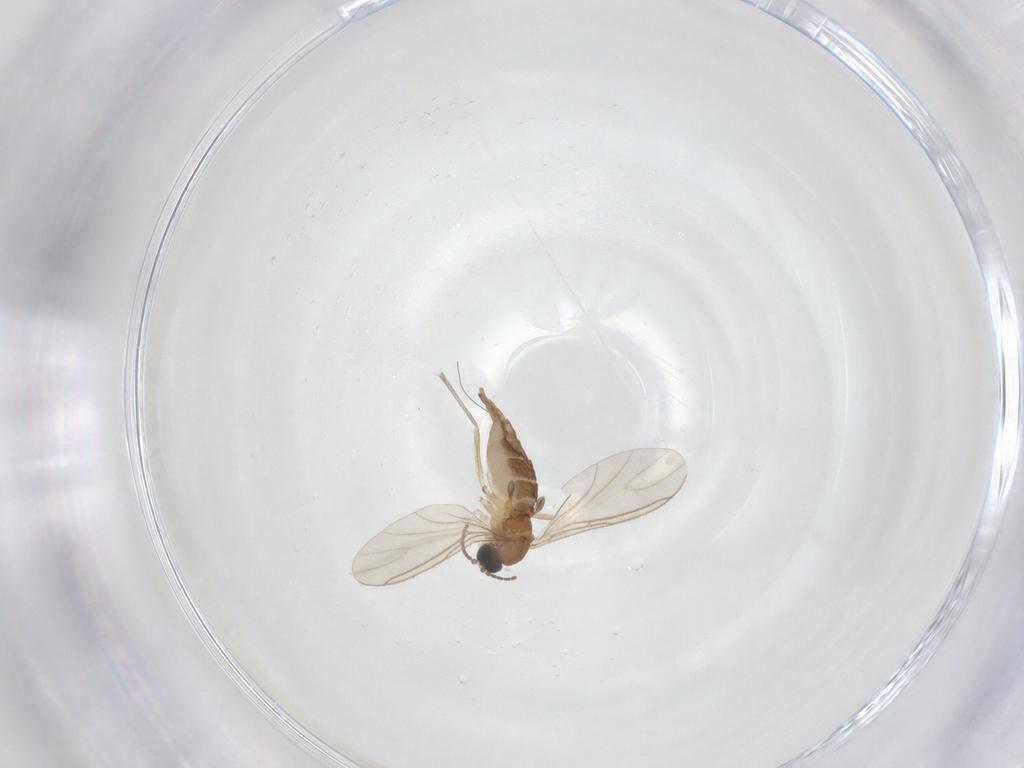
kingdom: Animalia
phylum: Arthropoda
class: Insecta
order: Diptera
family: Sciaridae
